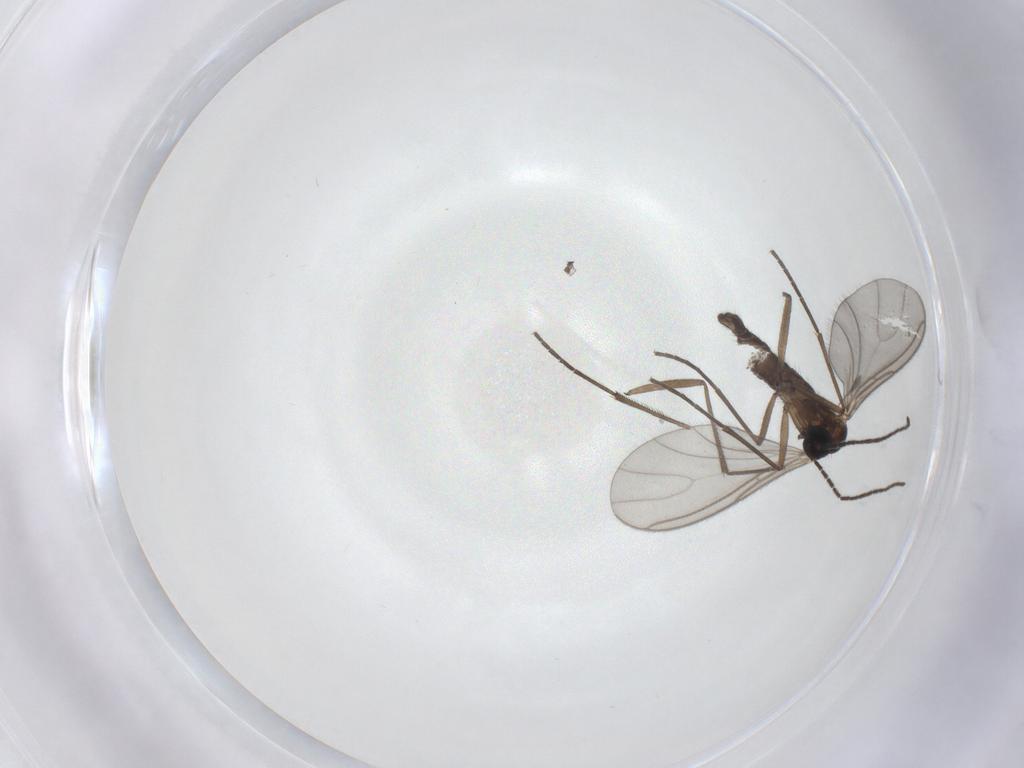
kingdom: Animalia
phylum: Arthropoda
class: Insecta
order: Diptera
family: Sciaridae
